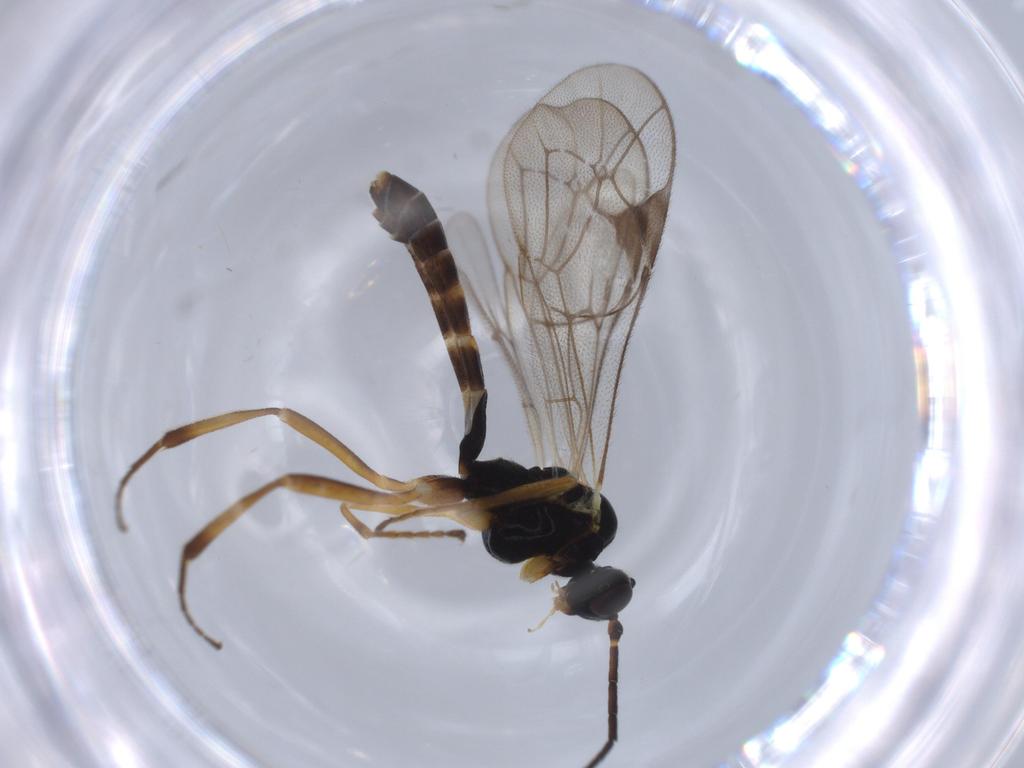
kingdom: Animalia
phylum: Arthropoda
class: Insecta
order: Hymenoptera
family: Ichneumonidae
